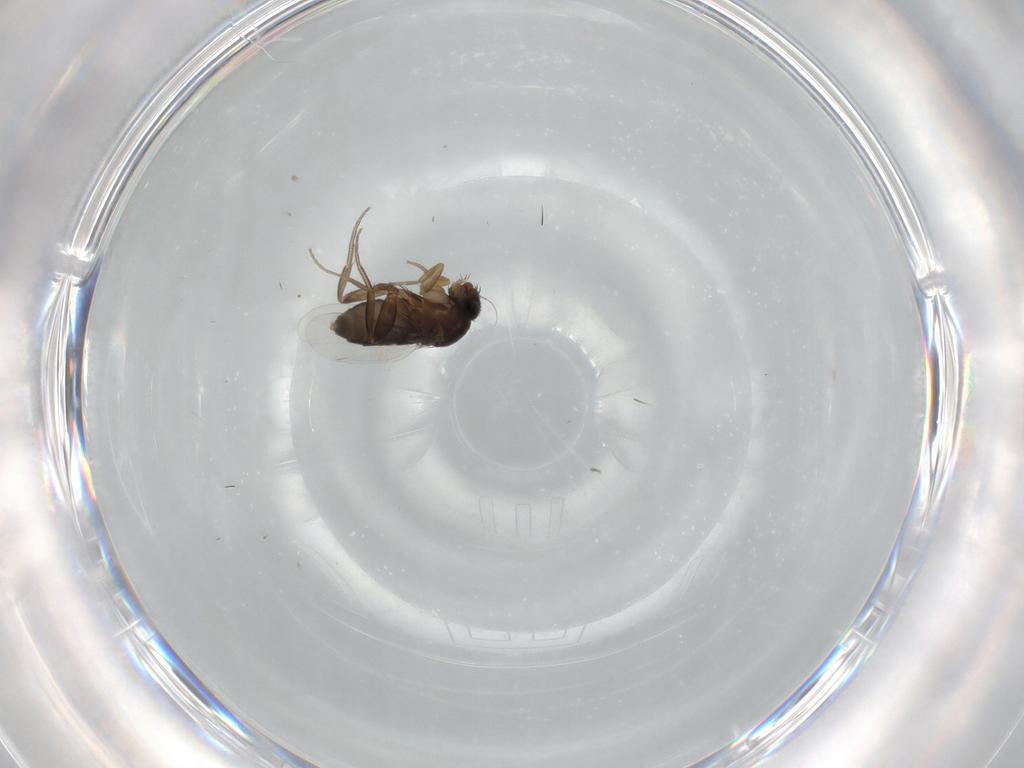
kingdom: Animalia
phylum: Arthropoda
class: Insecta
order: Diptera
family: Phoridae
